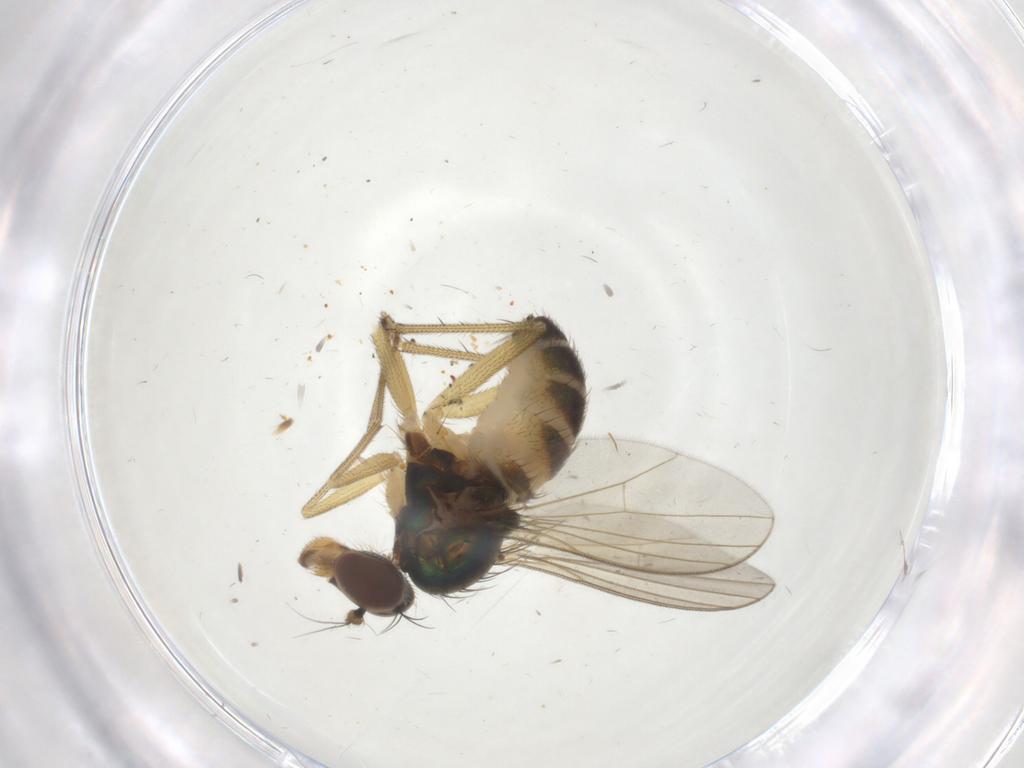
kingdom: Animalia
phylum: Arthropoda
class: Insecta
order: Diptera
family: Dolichopodidae
